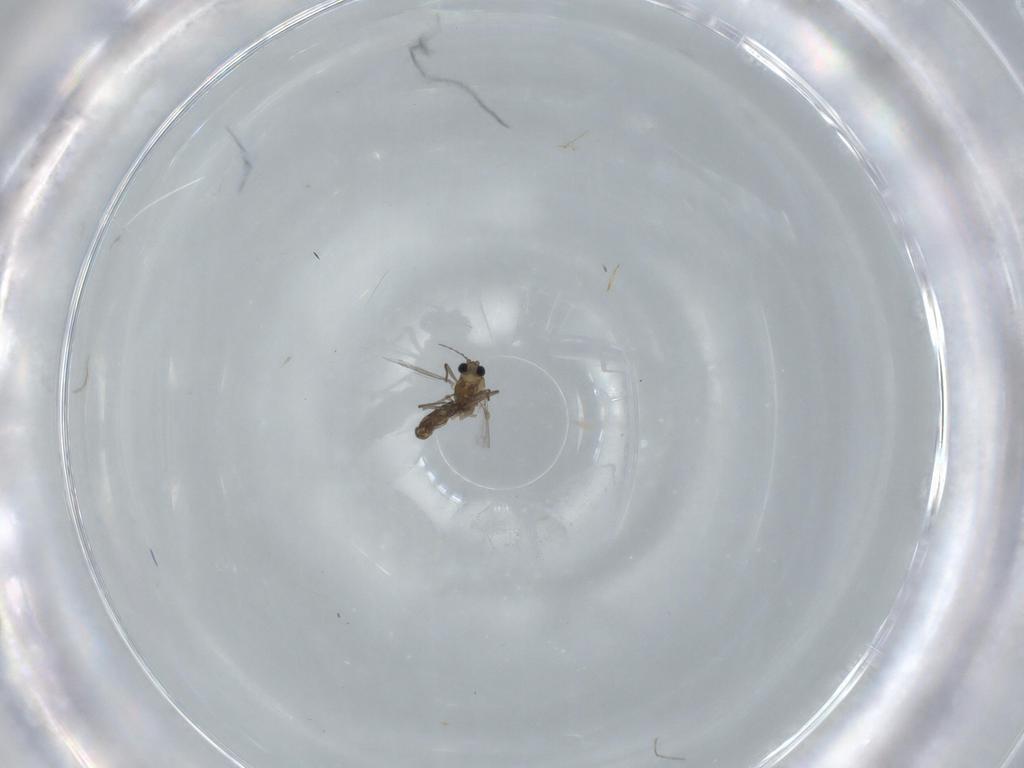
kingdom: Animalia
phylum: Arthropoda
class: Insecta
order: Diptera
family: Chironomidae
